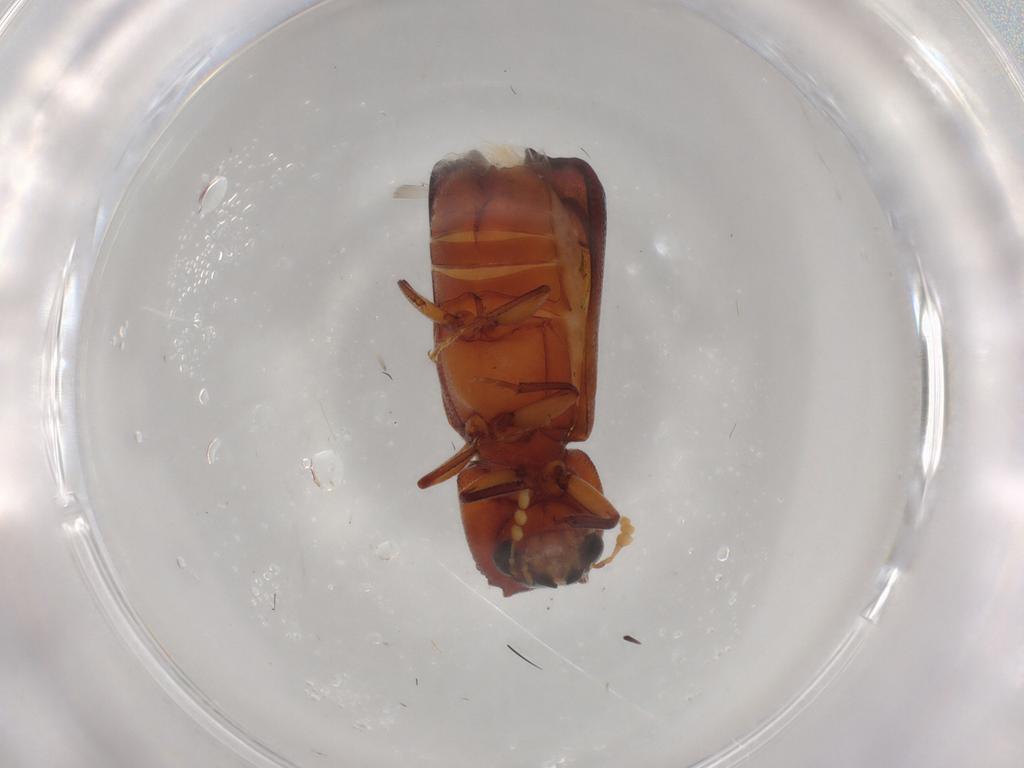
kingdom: Animalia
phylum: Arthropoda
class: Insecta
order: Coleoptera
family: Bostrichidae
